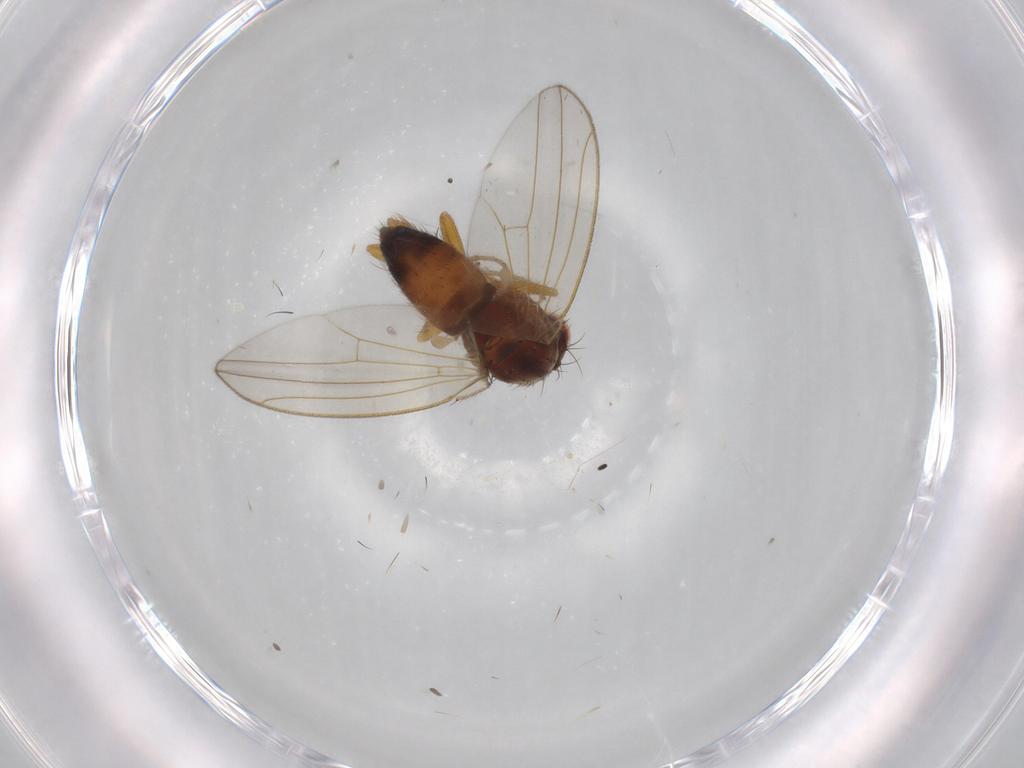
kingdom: Animalia
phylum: Arthropoda
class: Insecta
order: Diptera
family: Drosophilidae
